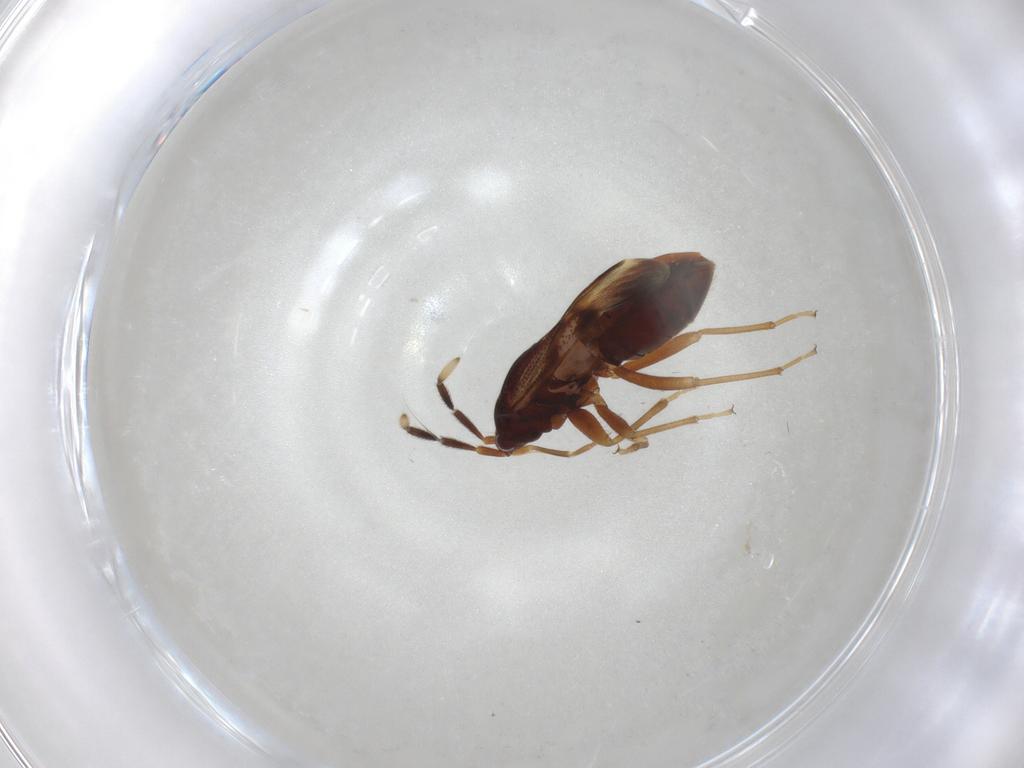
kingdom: Animalia
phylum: Arthropoda
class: Insecta
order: Hemiptera
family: Rhyparochromidae
